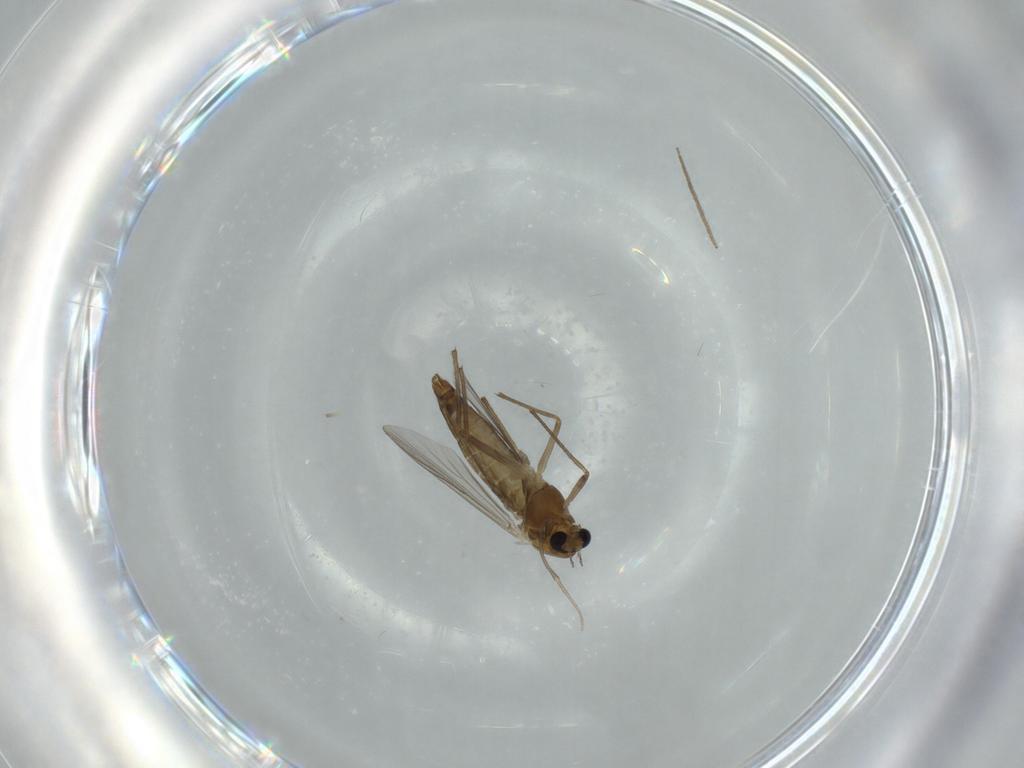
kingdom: Animalia
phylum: Arthropoda
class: Insecta
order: Diptera
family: Chironomidae
